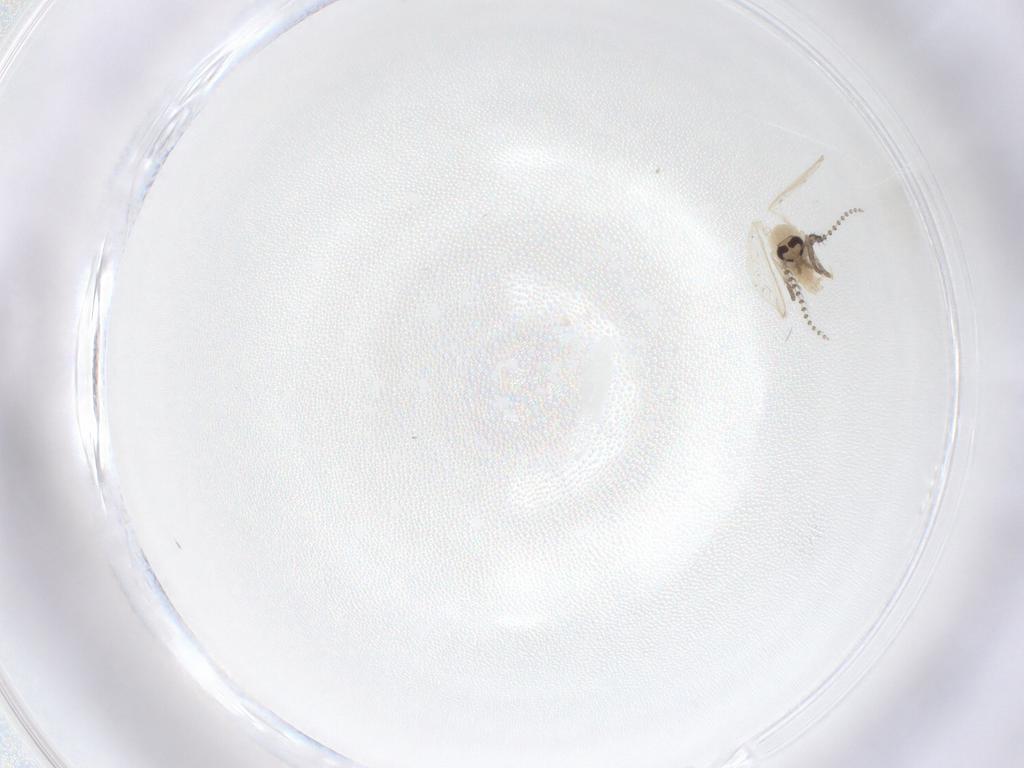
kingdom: Animalia
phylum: Arthropoda
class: Insecta
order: Diptera
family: Psychodidae
